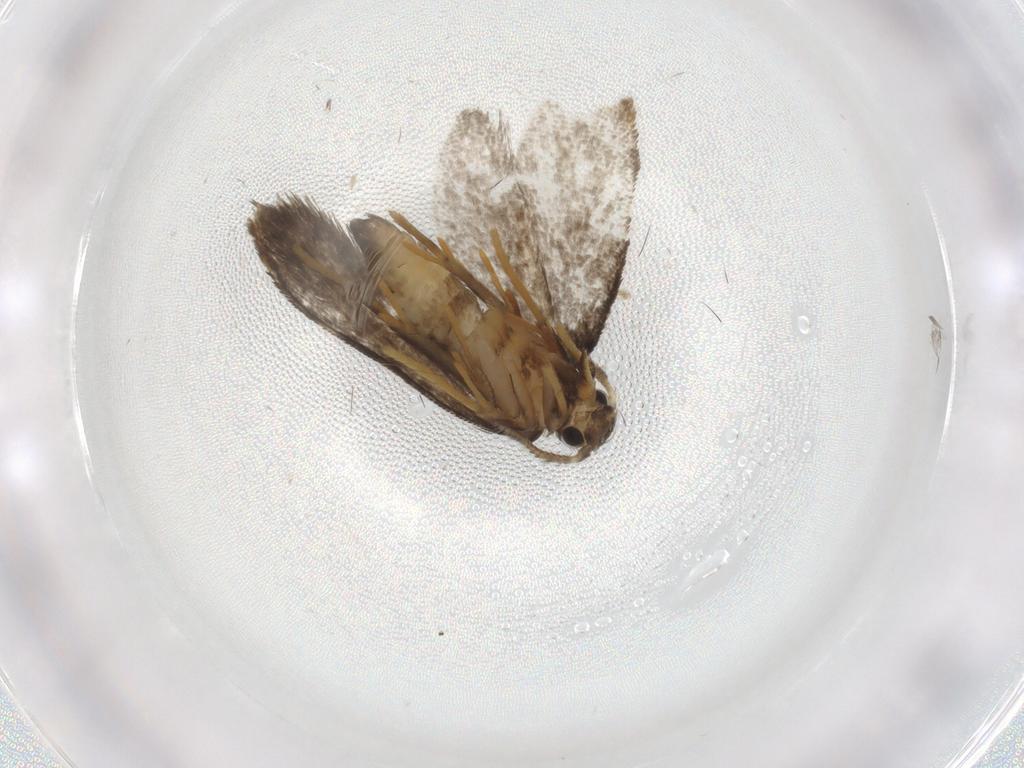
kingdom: Animalia
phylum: Arthropoda
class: Insecta
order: Lepidoptera
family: Psychidae
